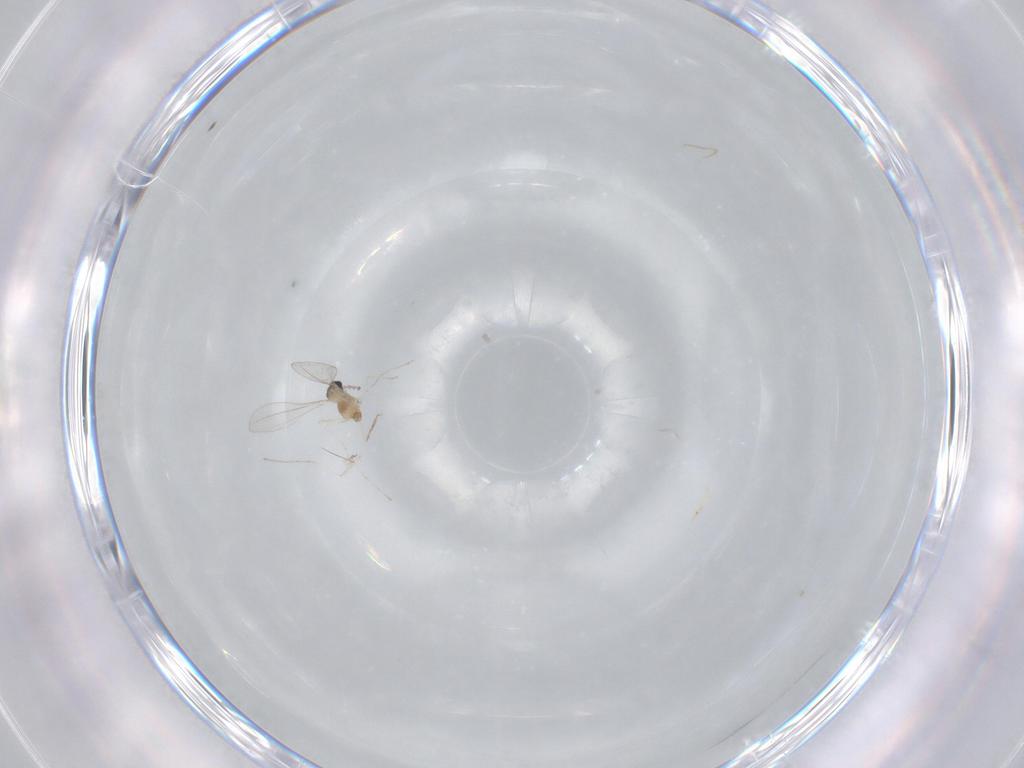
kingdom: Animalia
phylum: Arthropoda
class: Insecta
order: Diptera
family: Cecidomyiidae
